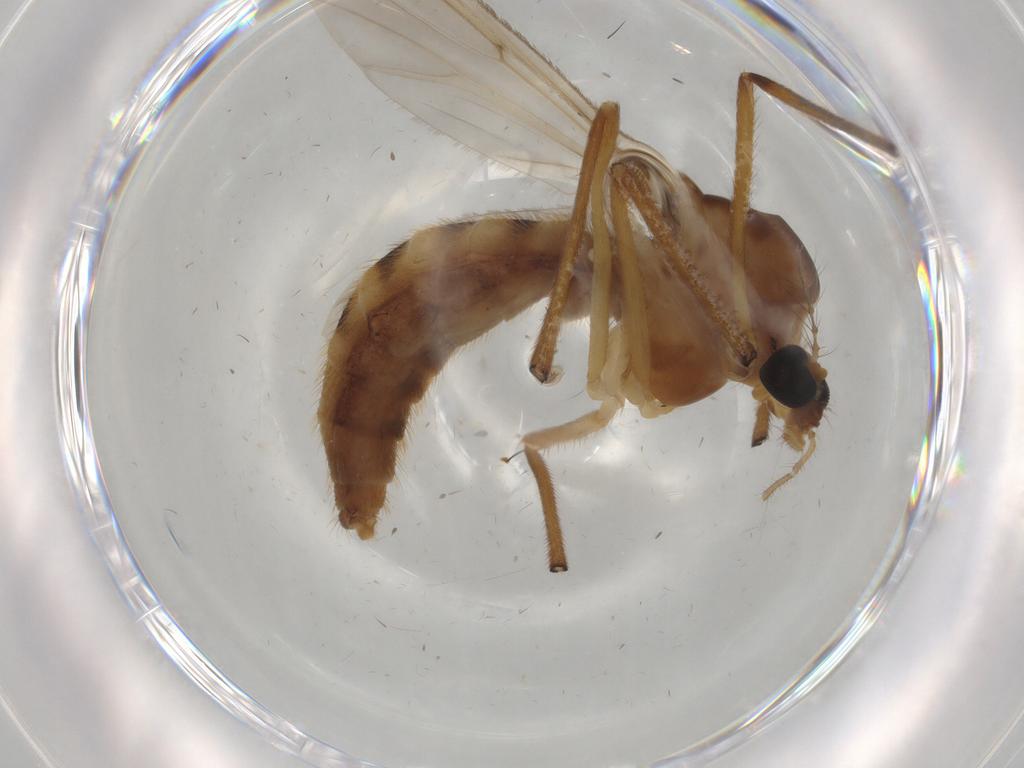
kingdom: Animalia
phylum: Arthropoda
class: Insecta
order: Diptera
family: Chironomidae
